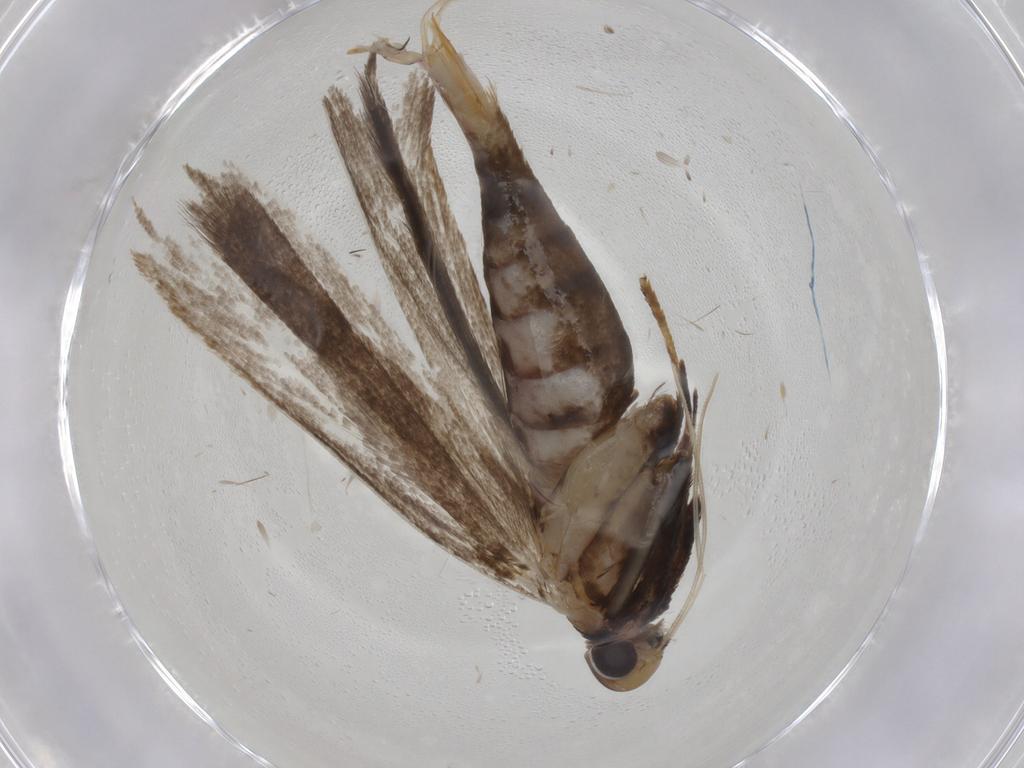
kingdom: Animalia
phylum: Arthropoda
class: Insecta
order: Lepidoptera
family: Gelechiidae
